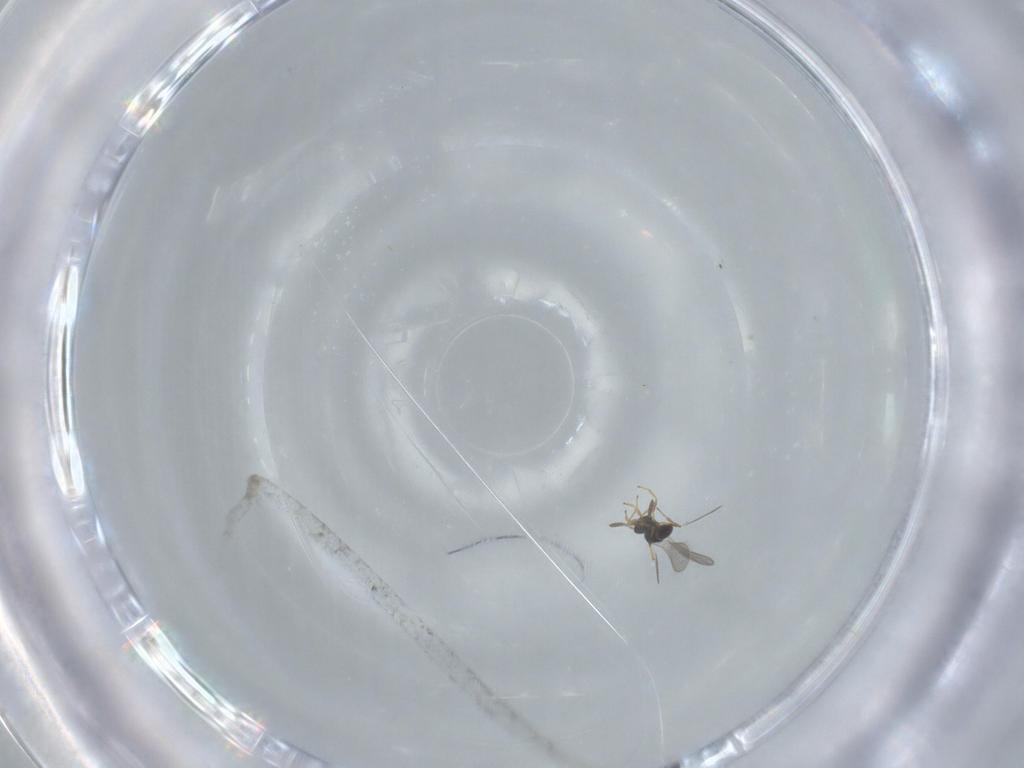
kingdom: Animalia
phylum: Arthropoda
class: Insecta
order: Hymenoptera
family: Platygastridae
